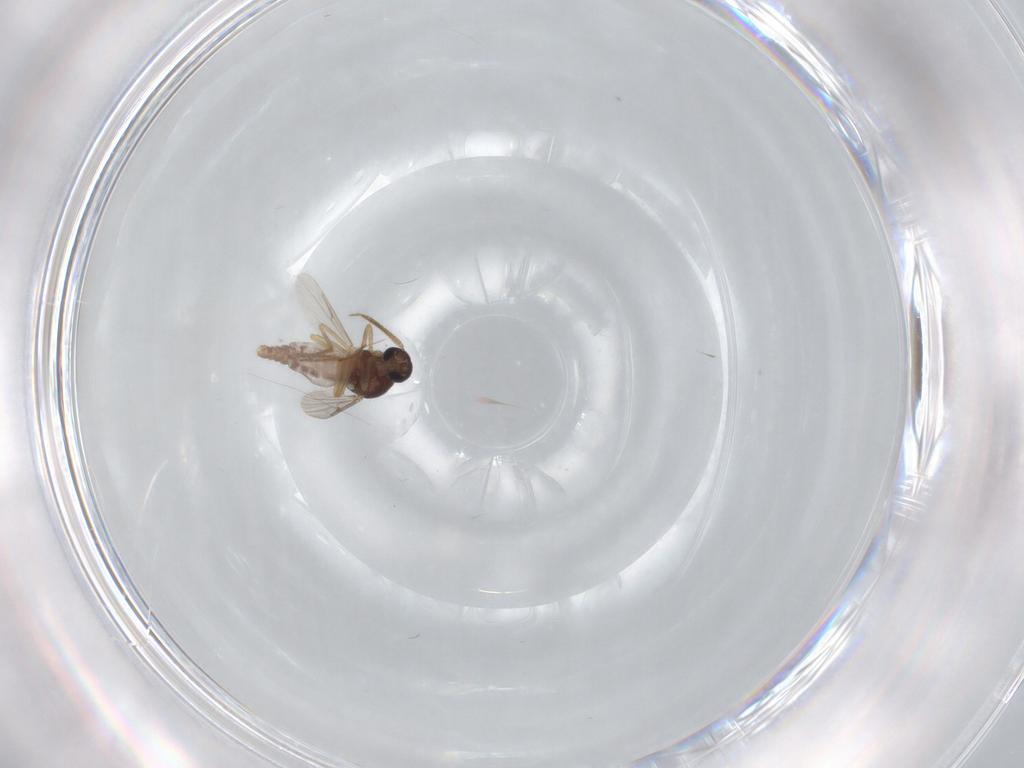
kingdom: Animalia
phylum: Arthropoda
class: Insecta
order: Diptera
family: Ceratopogonidae
